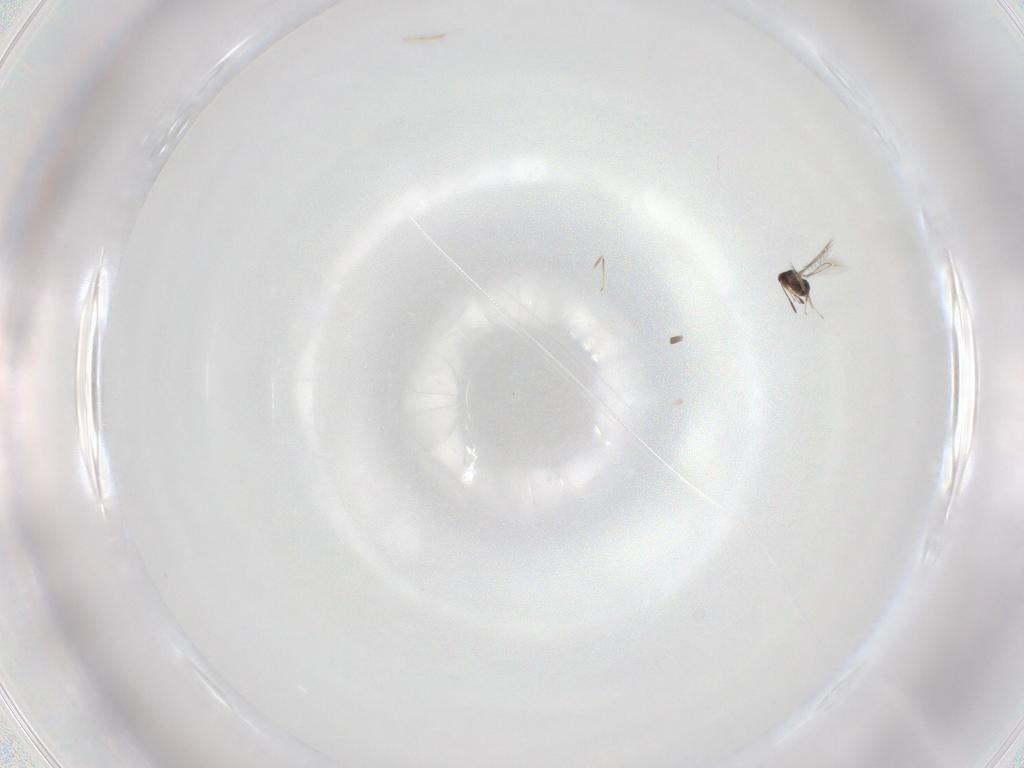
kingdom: Animalia
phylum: Arthropoda
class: Insecta
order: Hymenoptera
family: Mymaridae
